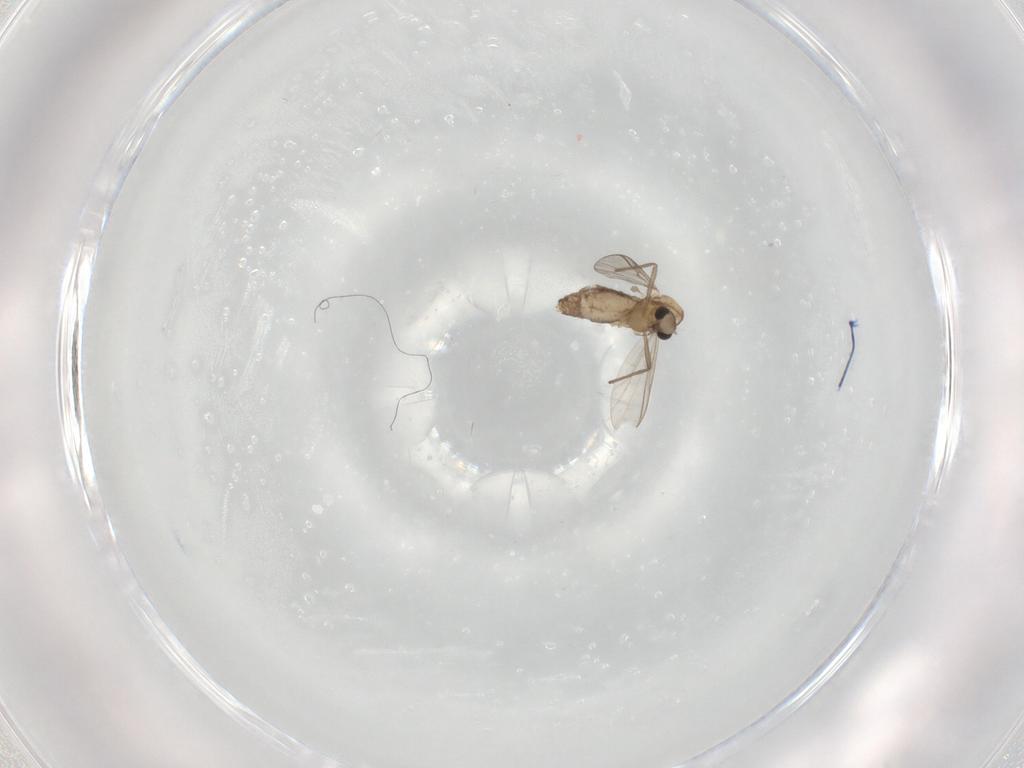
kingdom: Animalia
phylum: Arthropoda
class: Insecta
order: Diptera
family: Chironomidae
